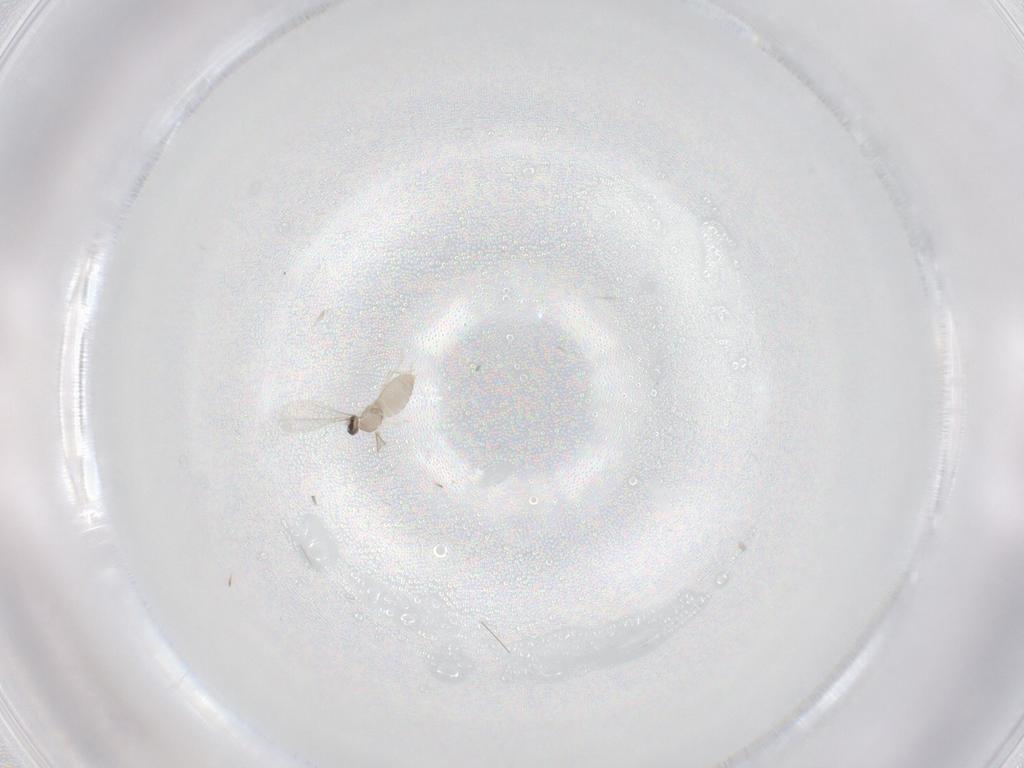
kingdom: Animalia
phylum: Arthropoda
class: Insecta
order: Diptera
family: Cecidomyiidae
